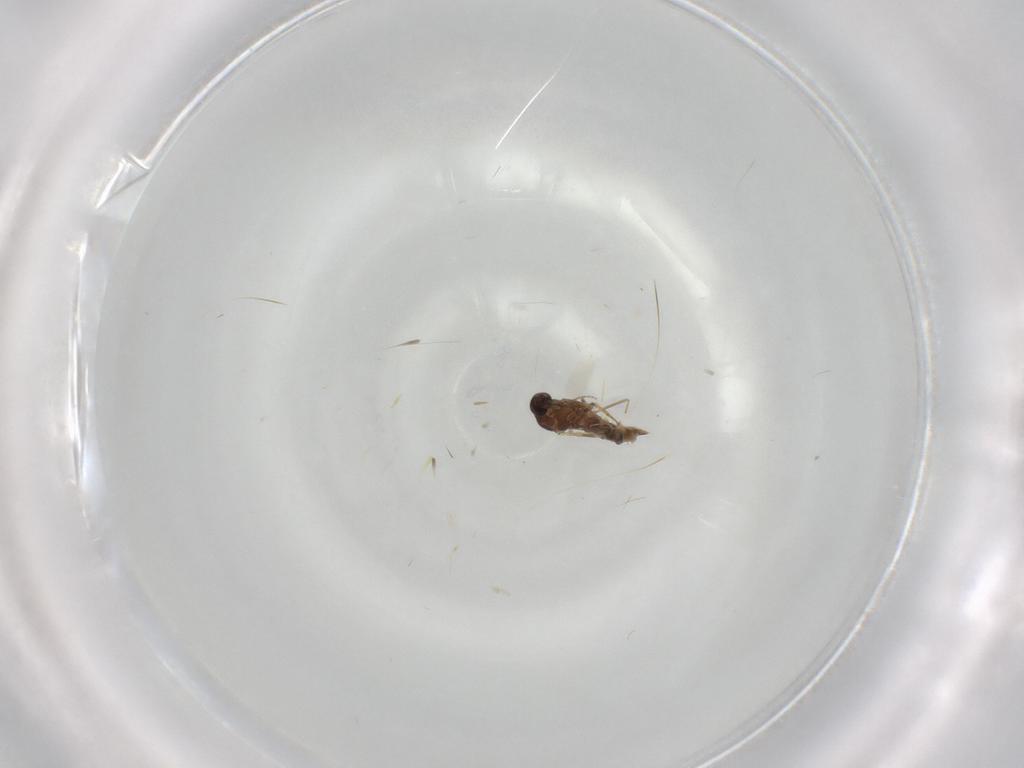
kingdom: Animalia
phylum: Arthropoda
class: Insecta
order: Diptera
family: Ceratopogonidae
